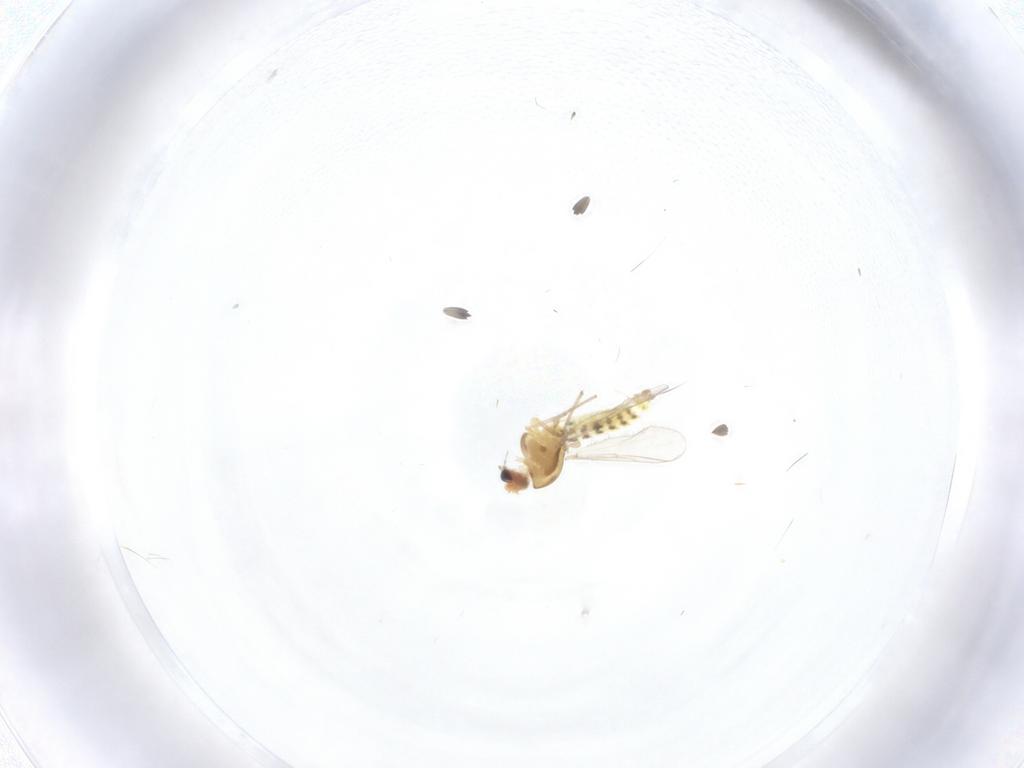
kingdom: Animalia
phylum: Arthropoda
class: Insecta
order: Diptera
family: Chironomidae
